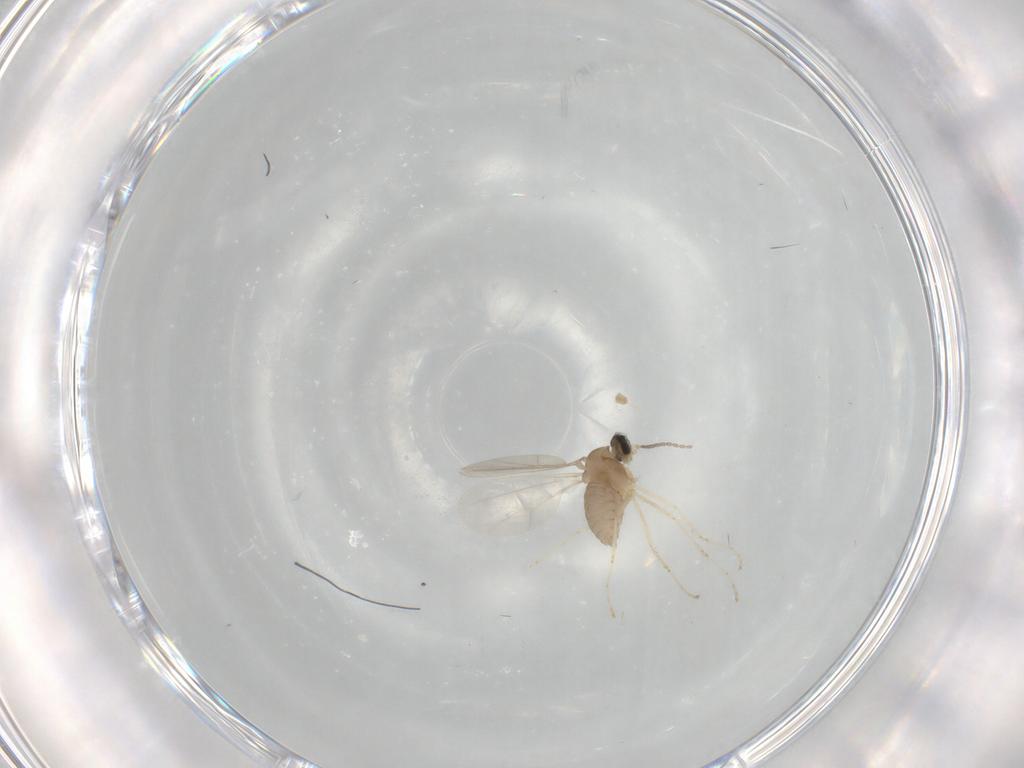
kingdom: Animalia
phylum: Arthropoda
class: Insecta
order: Diptera
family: Cecidomyiidae
